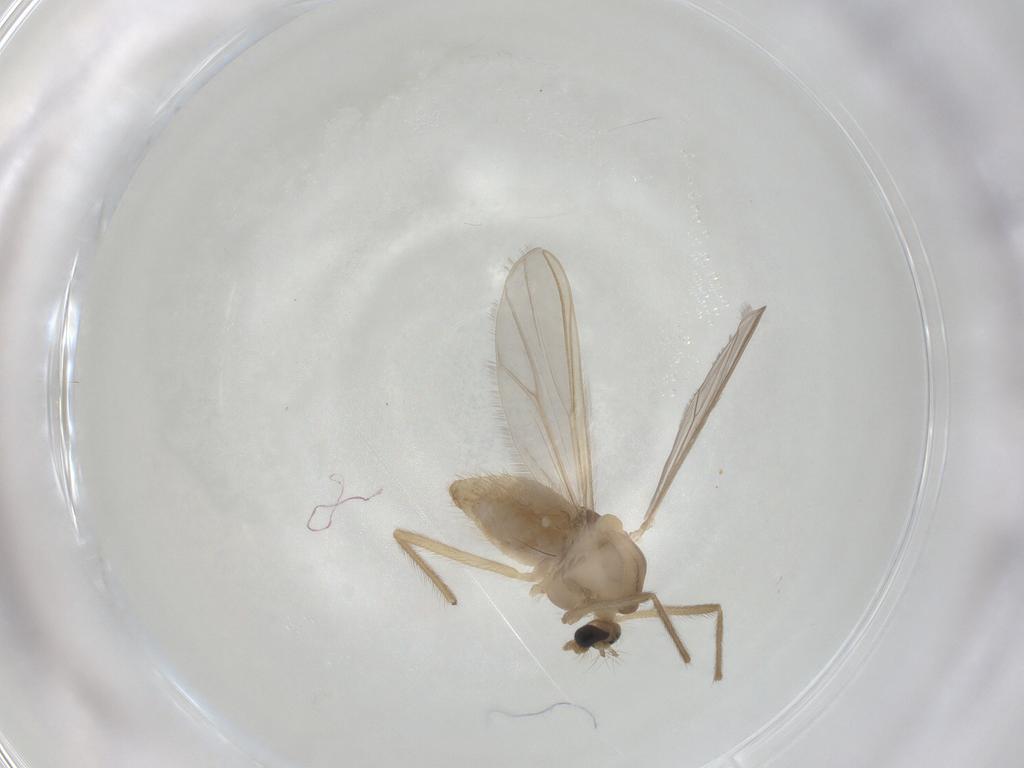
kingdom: Animalia
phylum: Arthropoda
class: Insecta
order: Diptera
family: Chironomidae
